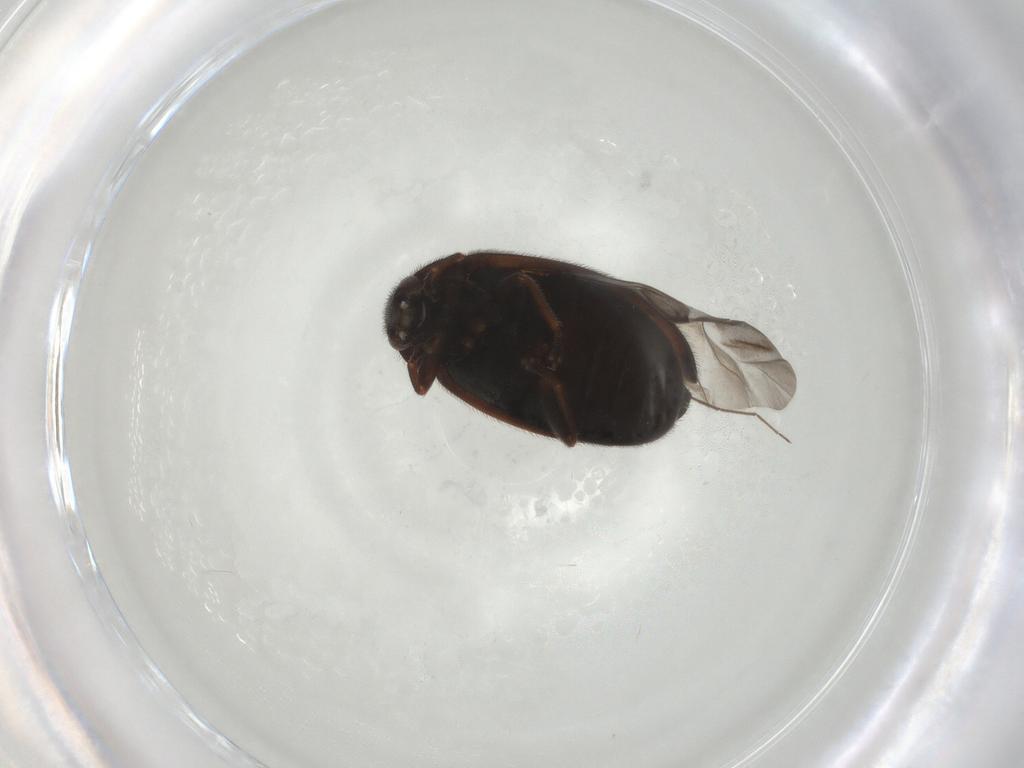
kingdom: Animalia
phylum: Arthropoda
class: Insecta
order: Coleoptera
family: Scirtidae
